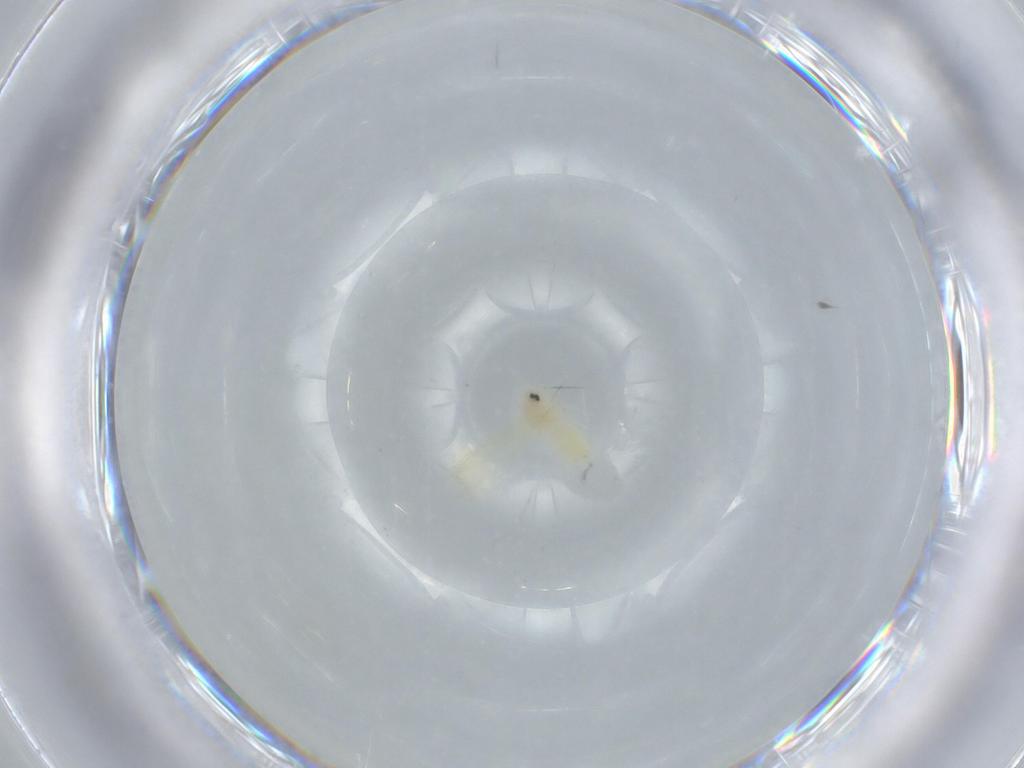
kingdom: Animalia
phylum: Arthropoda
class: Insecta
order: Hemiptera
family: Aleyrodidae
